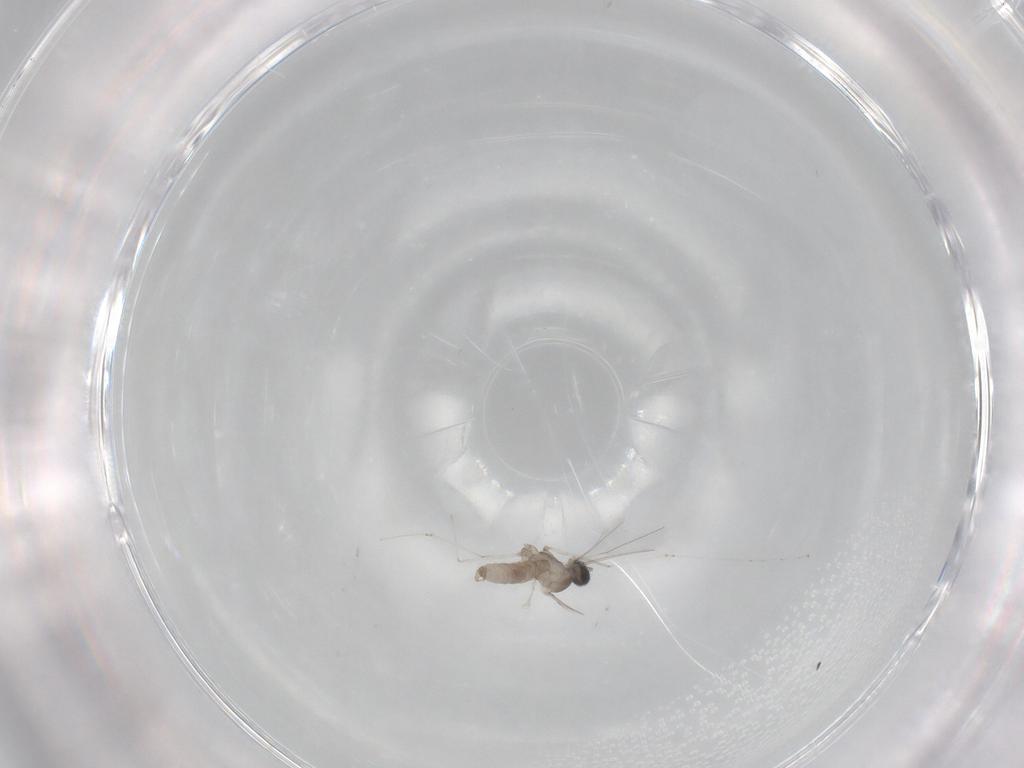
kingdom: Animalia
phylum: Arthropoda
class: Insecta
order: Diptera
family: Cecidomyiidae
